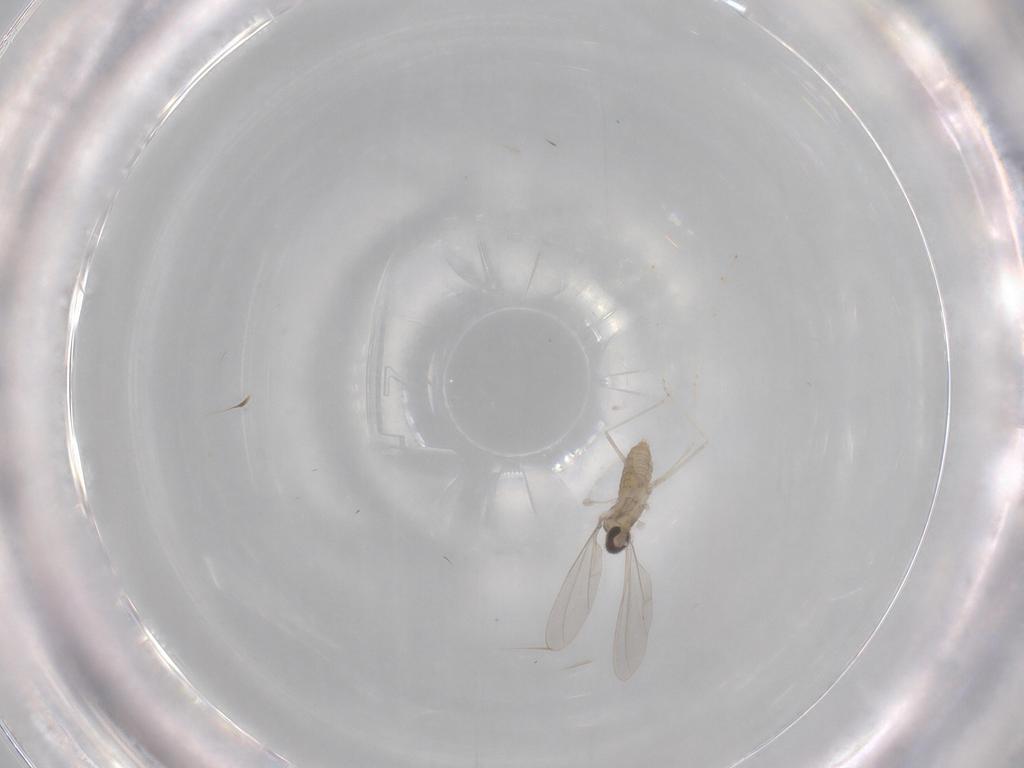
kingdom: Animalia
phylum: Arthropoda
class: Insecta
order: Diptera
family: Cecidomyiidae
